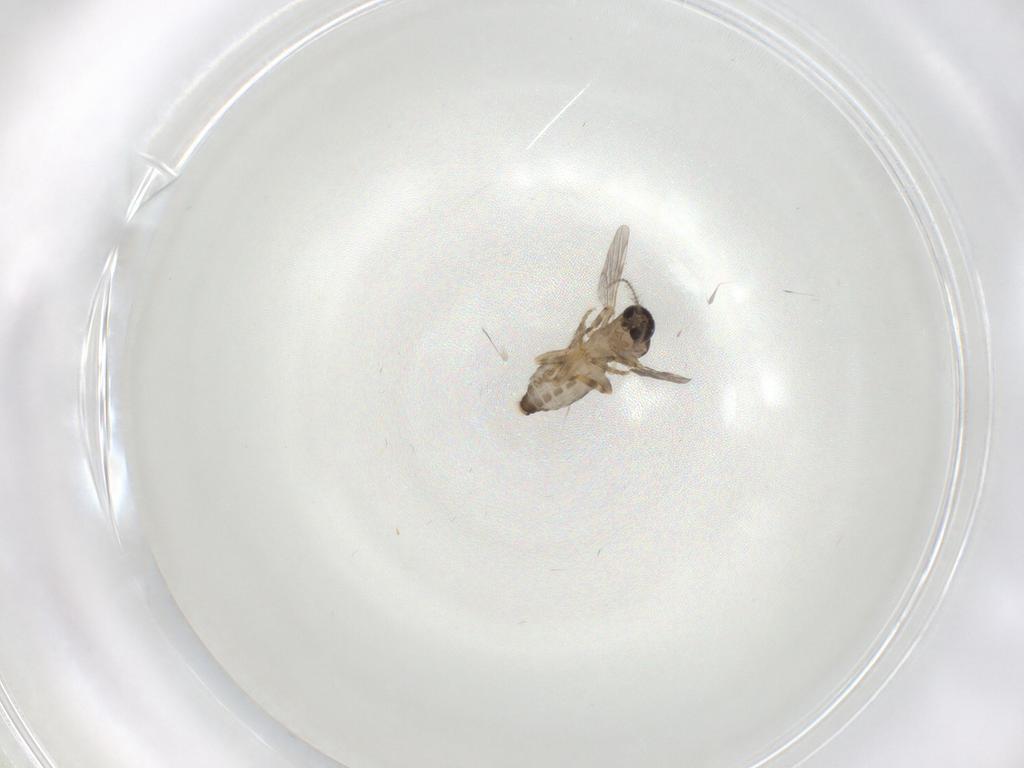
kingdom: Animalia
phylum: Arthropoda
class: Insecta
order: Diptera
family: Ceratopogonidae
